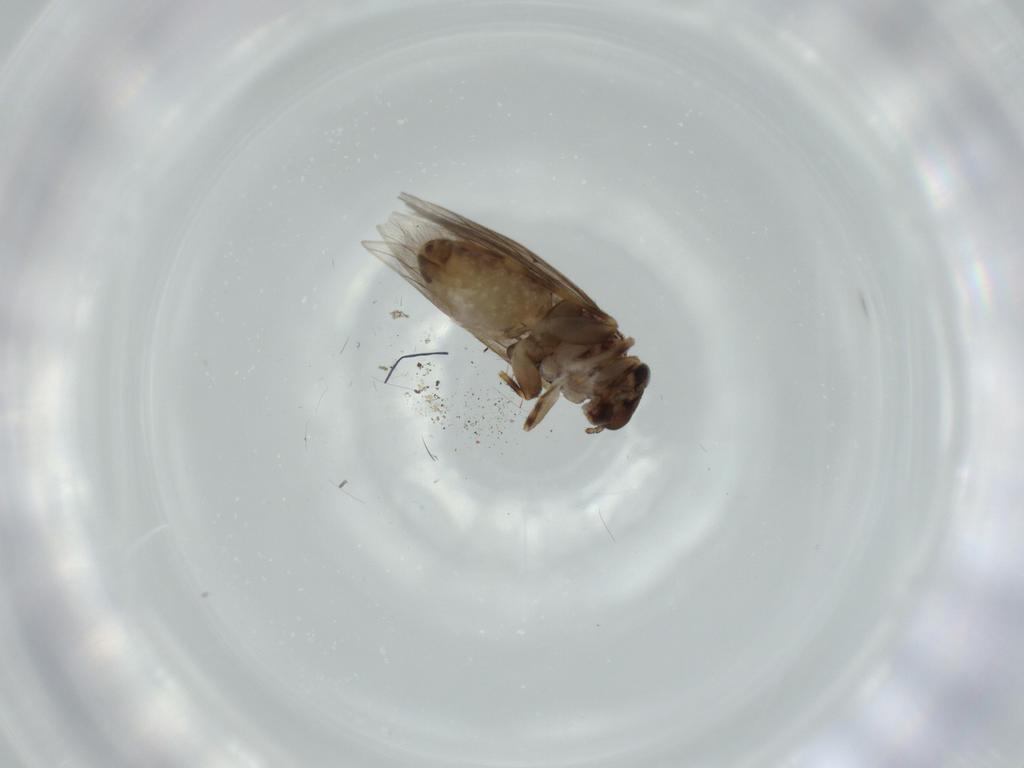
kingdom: Animalia
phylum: Arthropoda
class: Insecta
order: Psocodea
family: Lepidopsocidae
